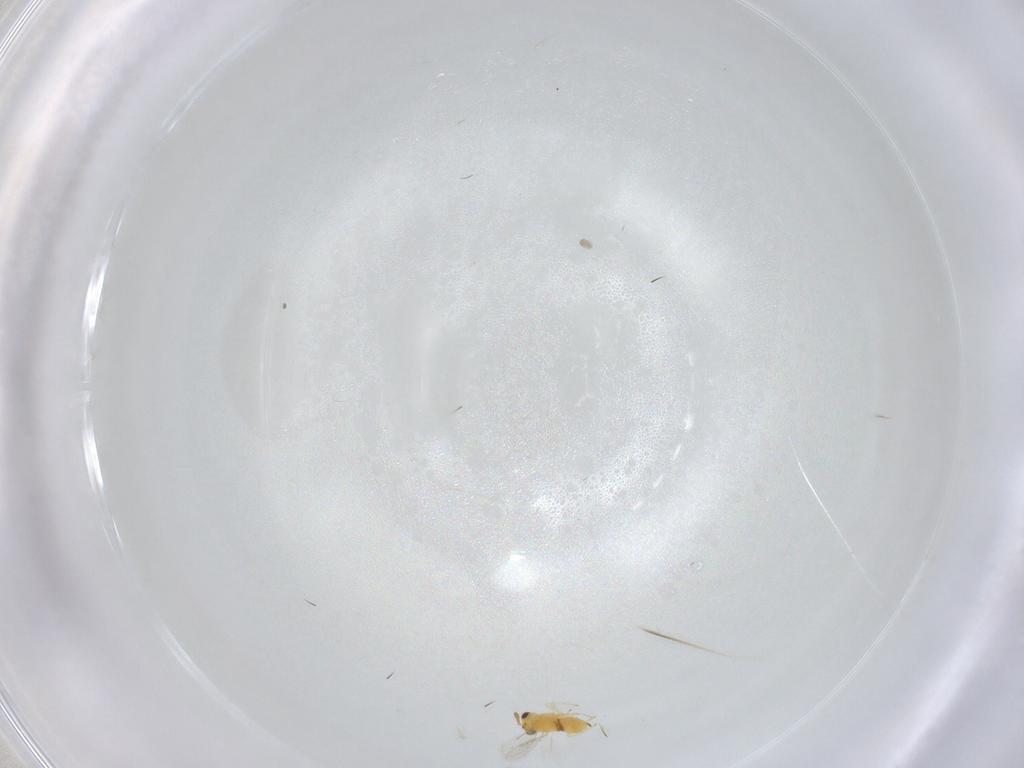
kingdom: Animalia
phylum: Arthropoda
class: Insecta
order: Hymenoptera
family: Aphelinidae
